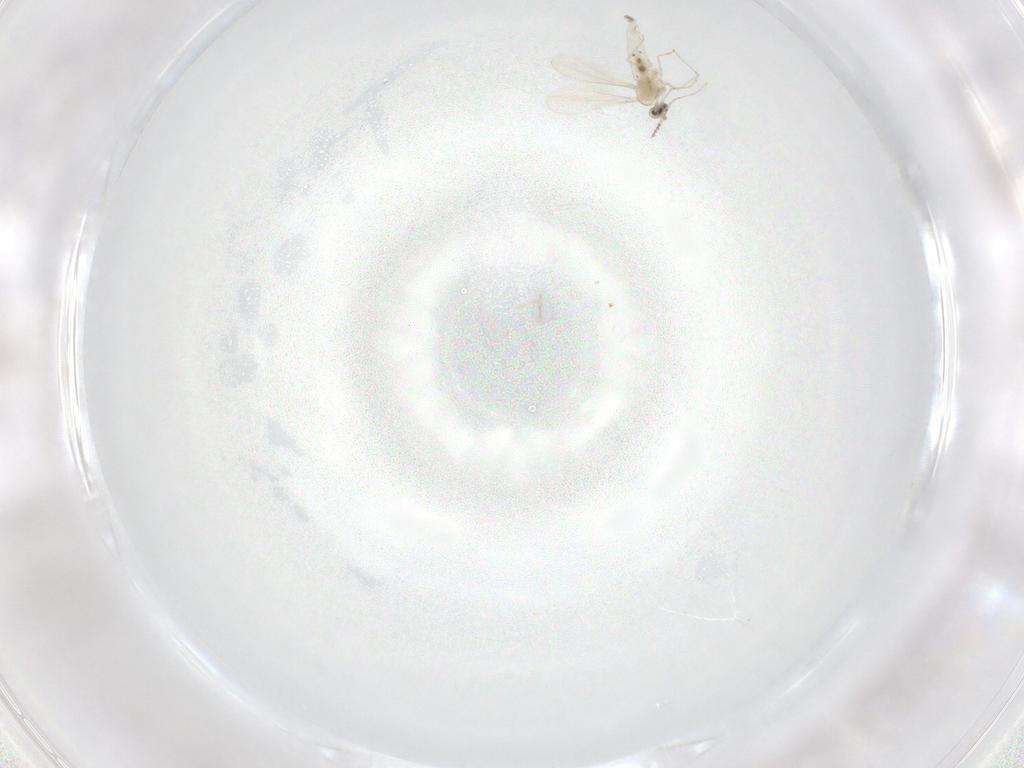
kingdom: Animalia
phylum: Arthropoda
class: Insecta
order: Diptera
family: Cecidomyiidae
